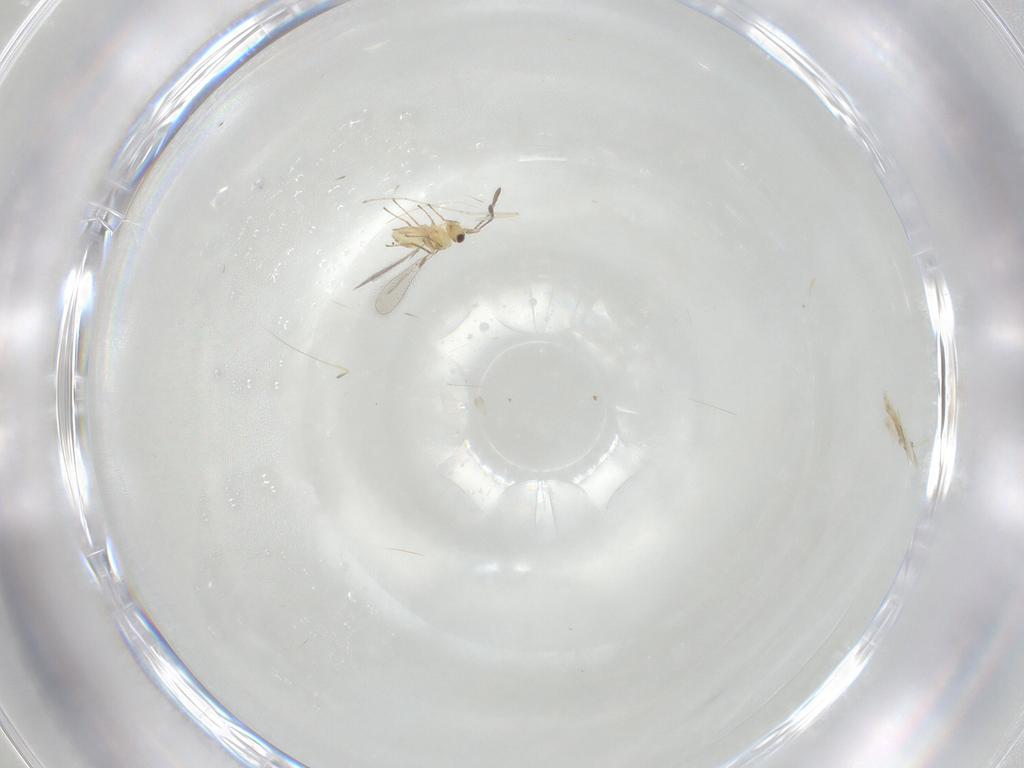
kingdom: Animalia
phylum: Arthropoda
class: Insecta
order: Hymenoptera
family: Mymaridae
